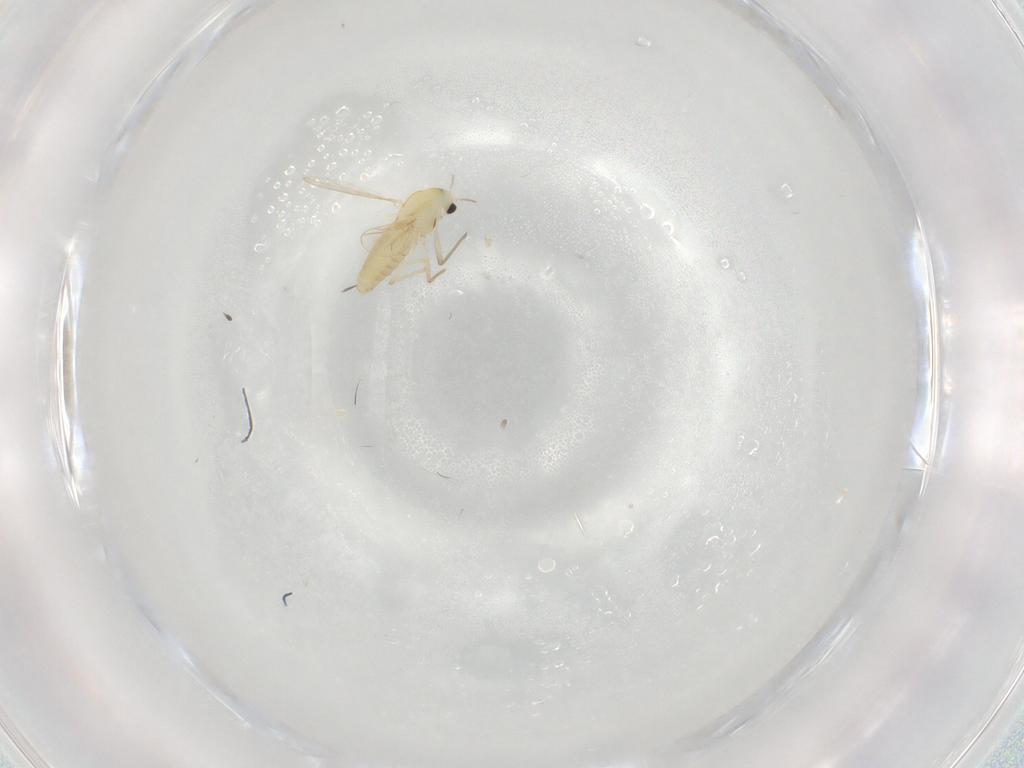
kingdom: Animalia
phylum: Arthropoda
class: Insecta
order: Diptera
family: Chironomidae
